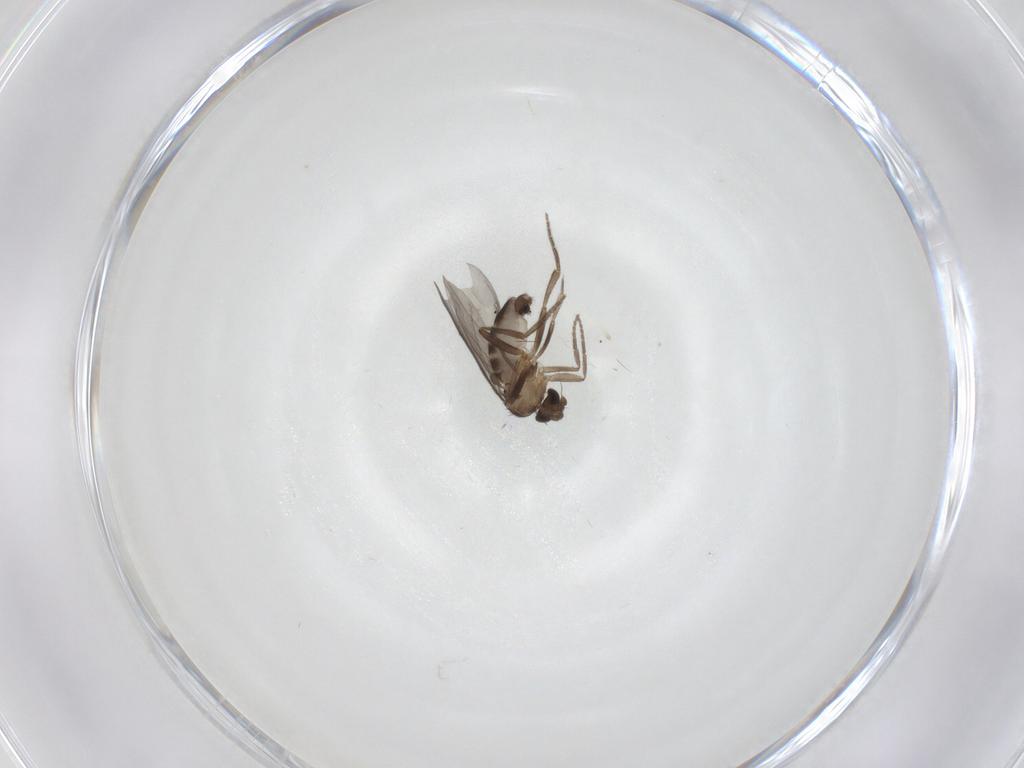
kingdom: Animalia
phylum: Arthropoda
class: Insecta
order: Diptera
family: Phoridae
